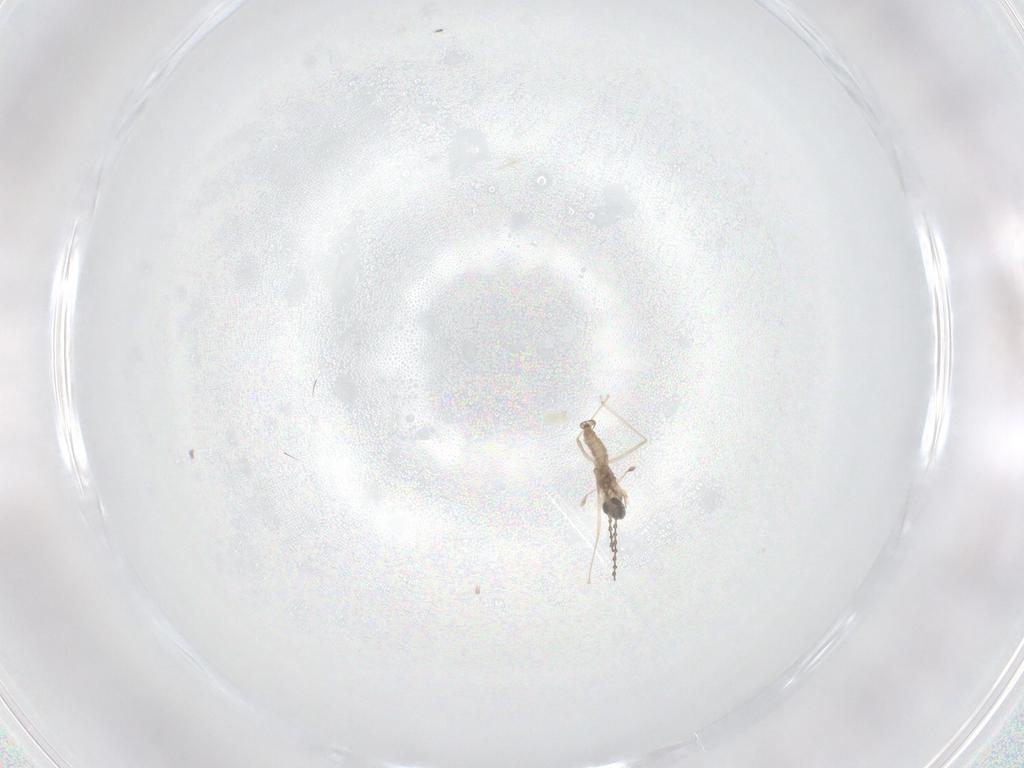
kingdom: Animalia
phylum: Arthropoda
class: Insecta
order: Diptera
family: Cecidomyiidae
